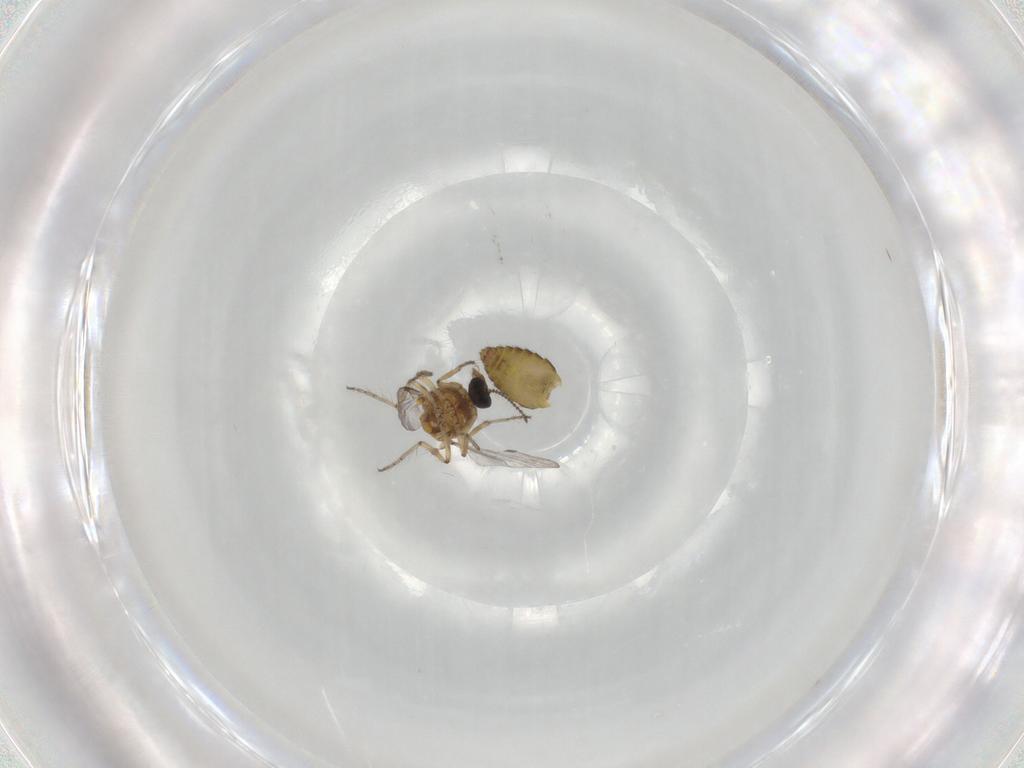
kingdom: Animalia
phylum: Arthropoda
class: Insecta
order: Diptera
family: Ceratopogonidae
